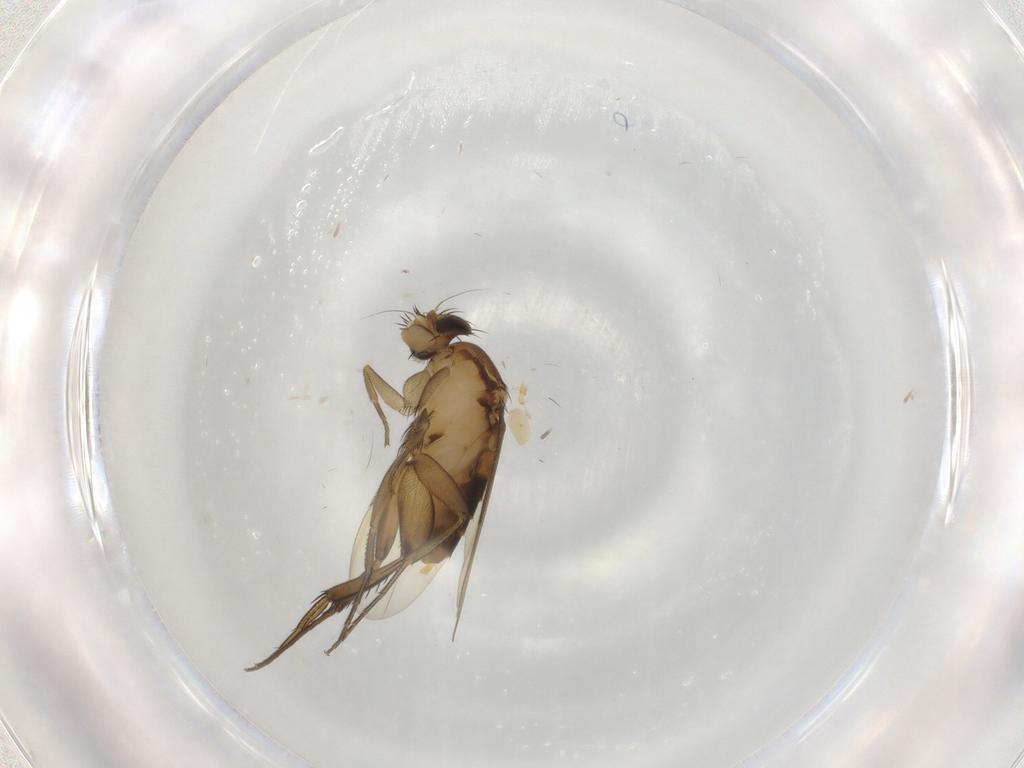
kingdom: Animalia
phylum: Arthropoda
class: Insecta
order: Diptera
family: Phoridae
